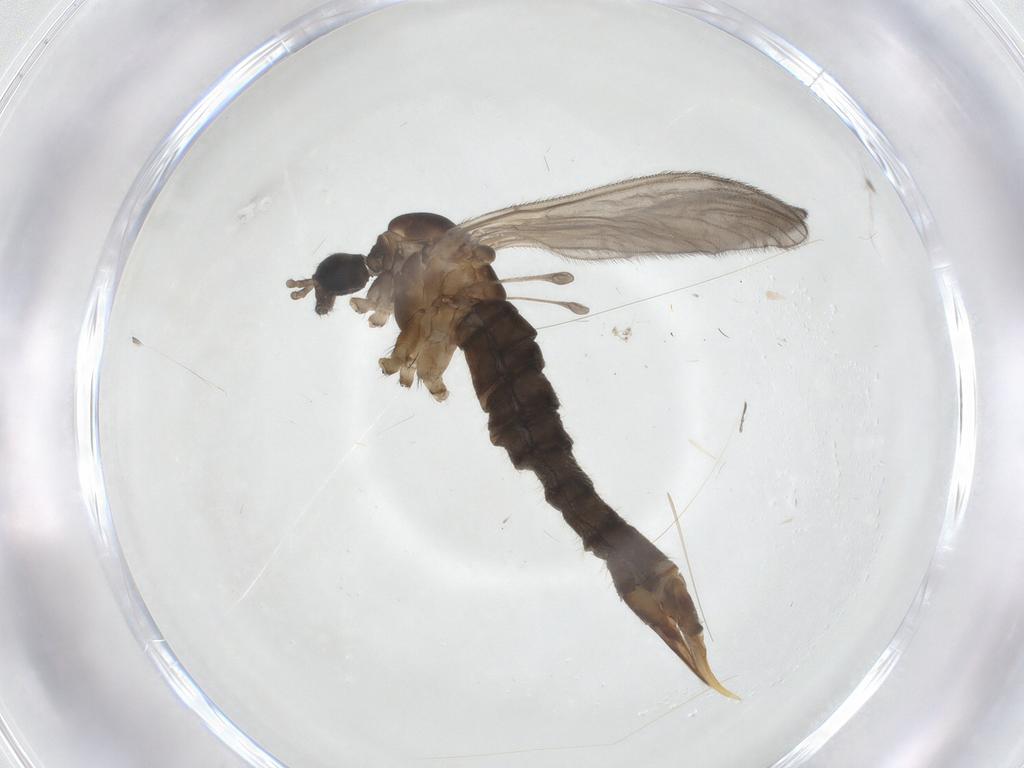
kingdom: Animalia
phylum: Arthropoda
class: Insecta
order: Diptera
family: Limoniidae
